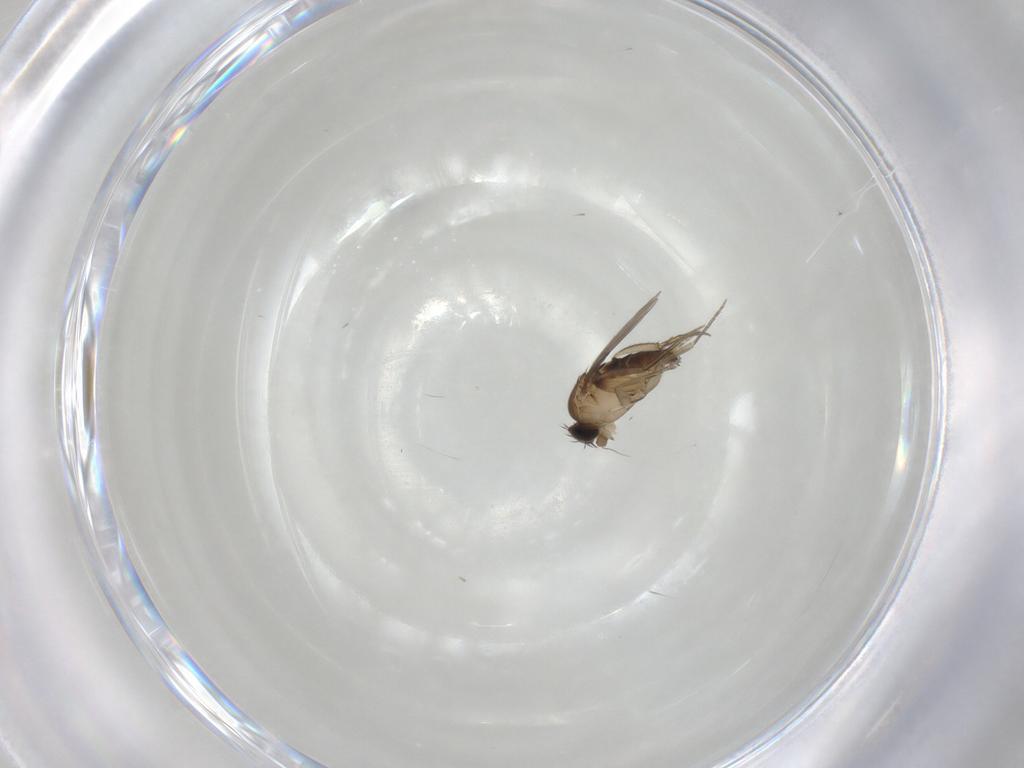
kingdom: Animalia
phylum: Arthropoda
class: Insecta
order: Diptera
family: Phoridae
